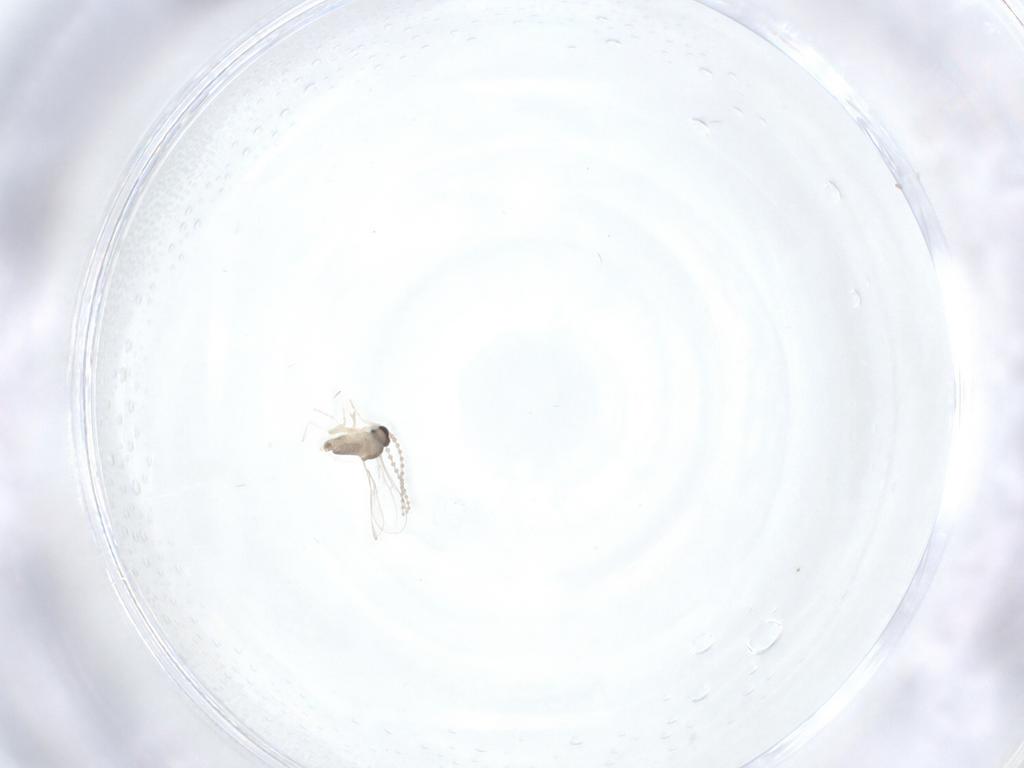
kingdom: Animalia
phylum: Arthropoda
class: Insecta
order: Diptera
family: Cecidomyiidae
